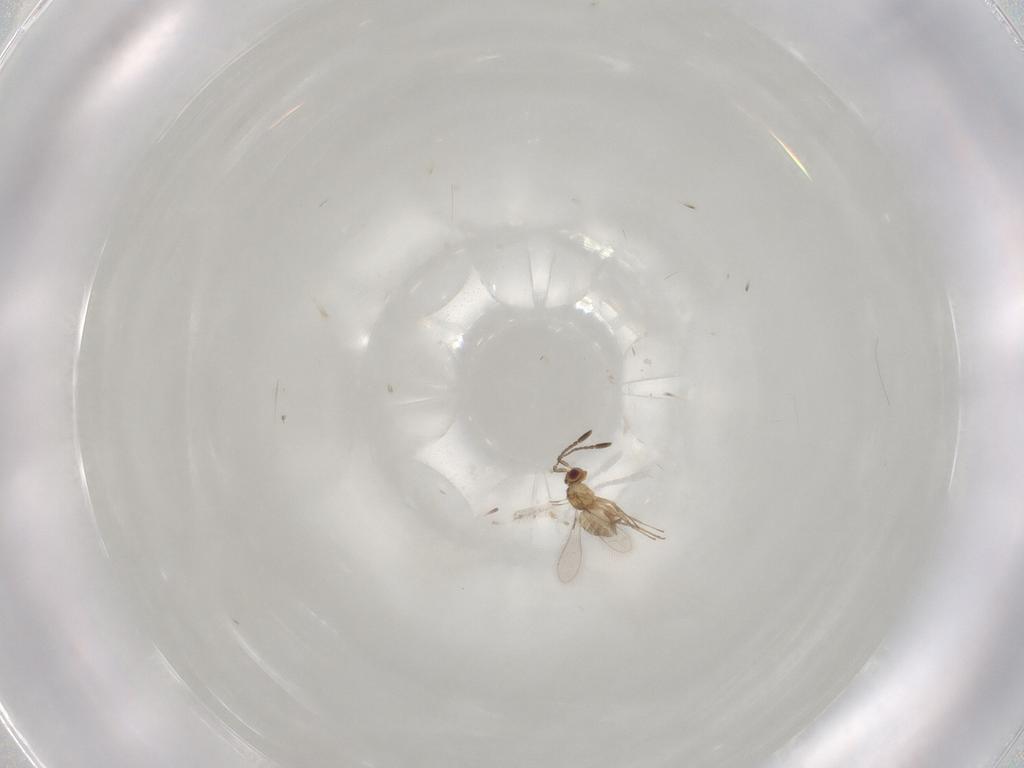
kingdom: Animalia
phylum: Arthropoda
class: Insecta
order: Hymenoptera
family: Mymaridae
